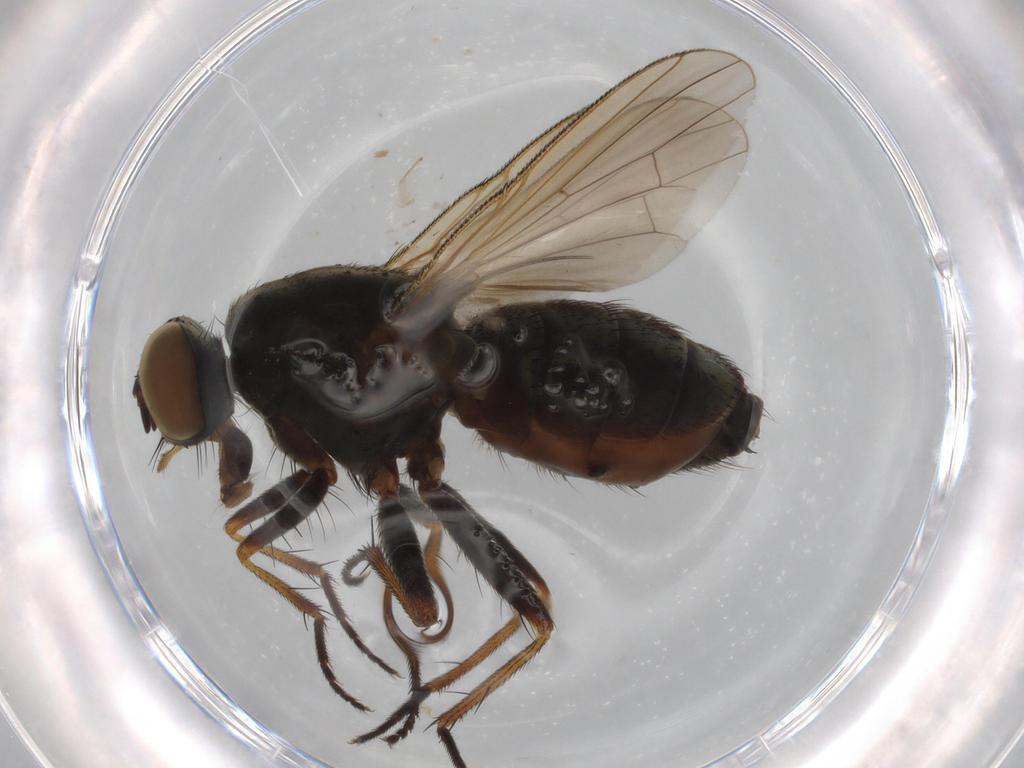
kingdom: Animalia
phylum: Arthropoda
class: Insecta
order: Diptera
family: Muscidae
